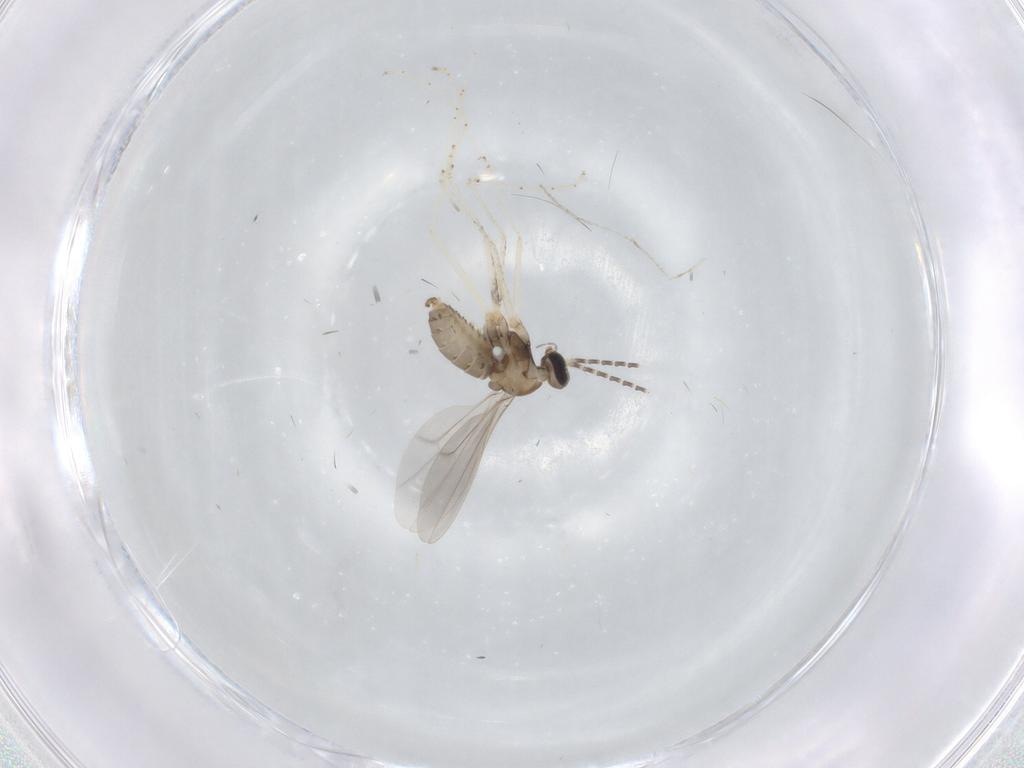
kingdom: Animalia
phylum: Arthropoda
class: Insecta
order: Diptera
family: Cecidomyiidae
